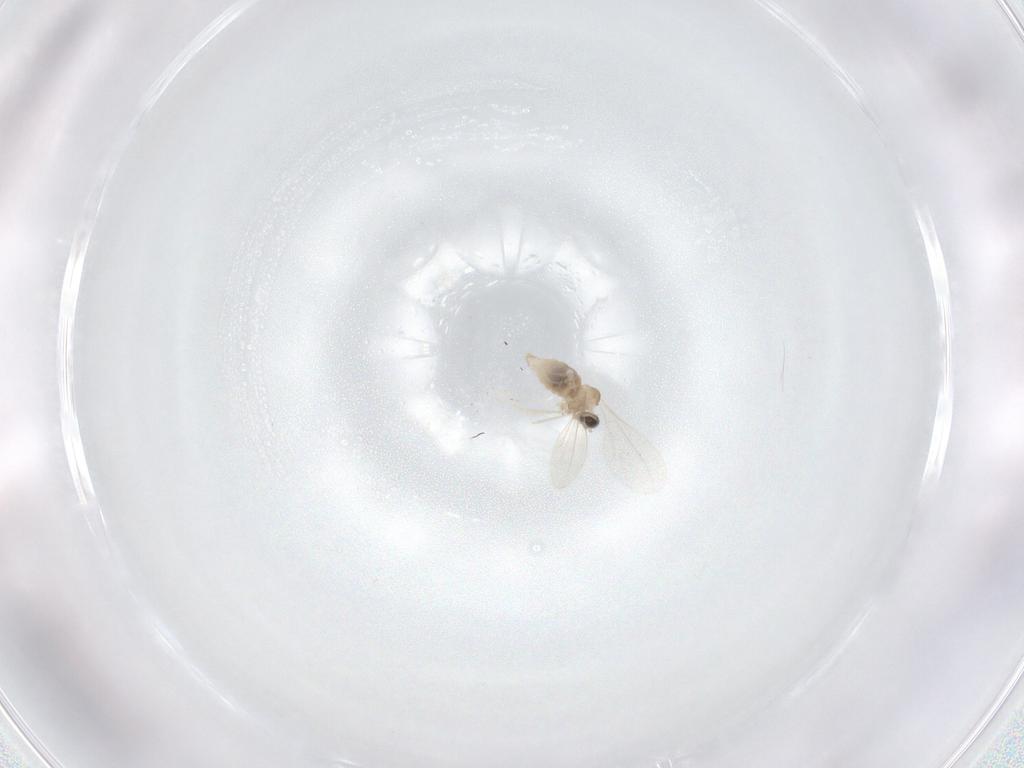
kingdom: Animalia
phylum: Arthropoda
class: Insecta
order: Diptera
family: Cecidomyiidae
